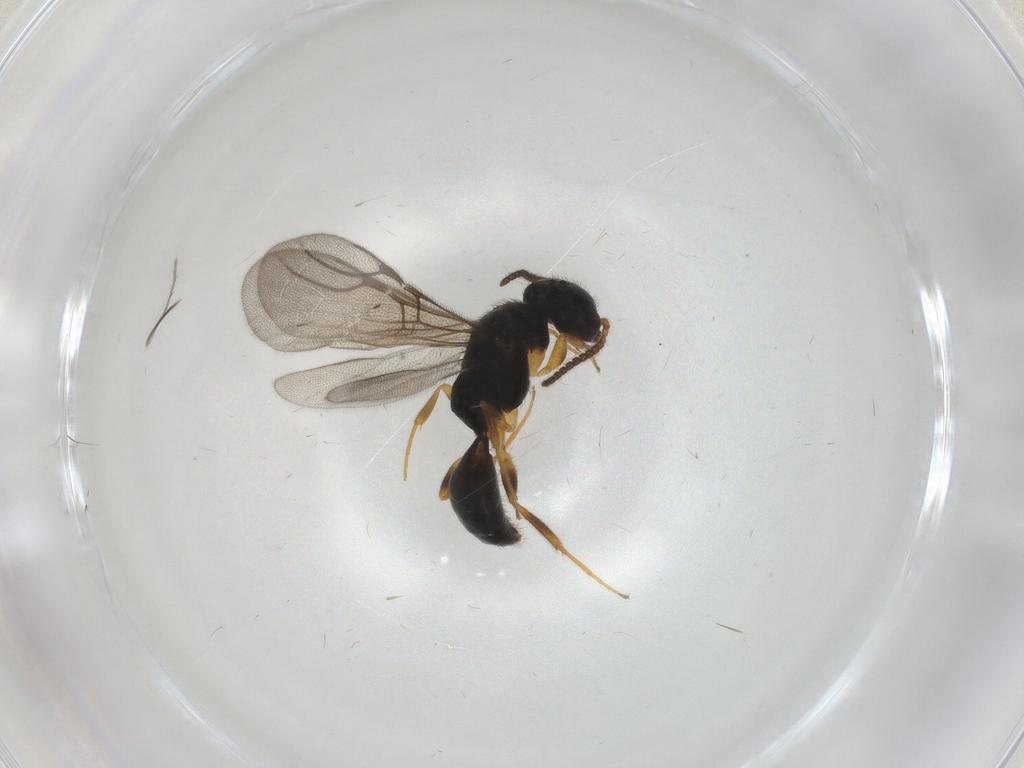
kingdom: Animalia
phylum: Arthropoda
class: Insecta
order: Hymenoptera
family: Bethylidae
